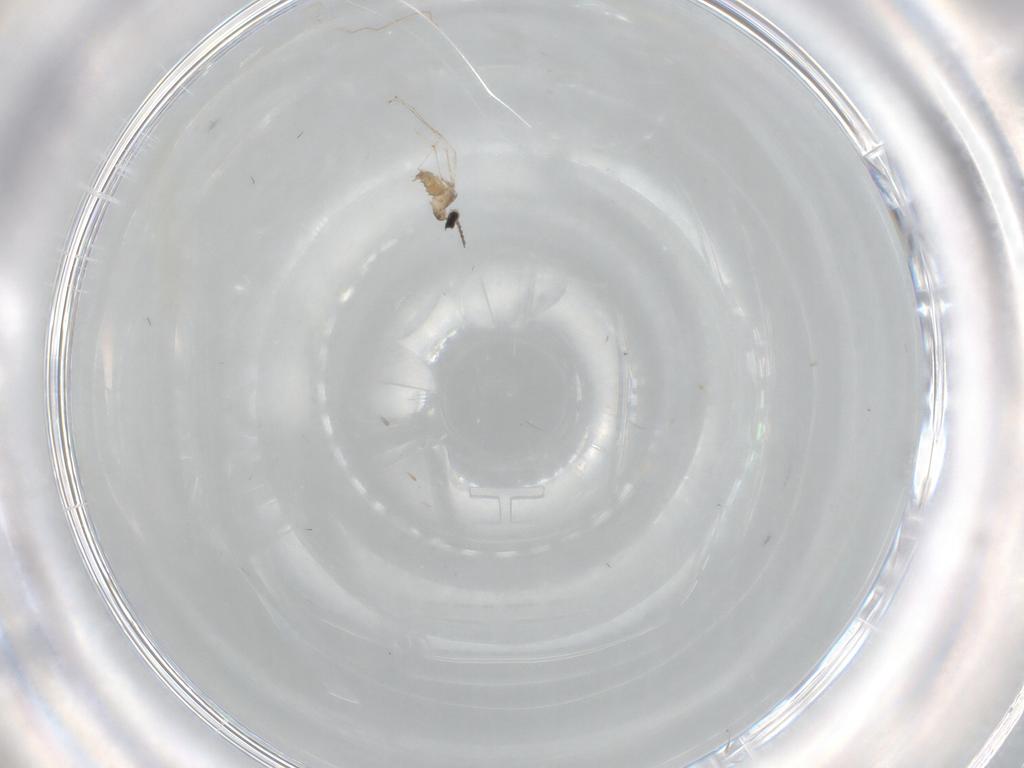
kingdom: Animalia
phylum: Arthropoda
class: Insecta
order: Diptera
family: Cecidomyiidae
